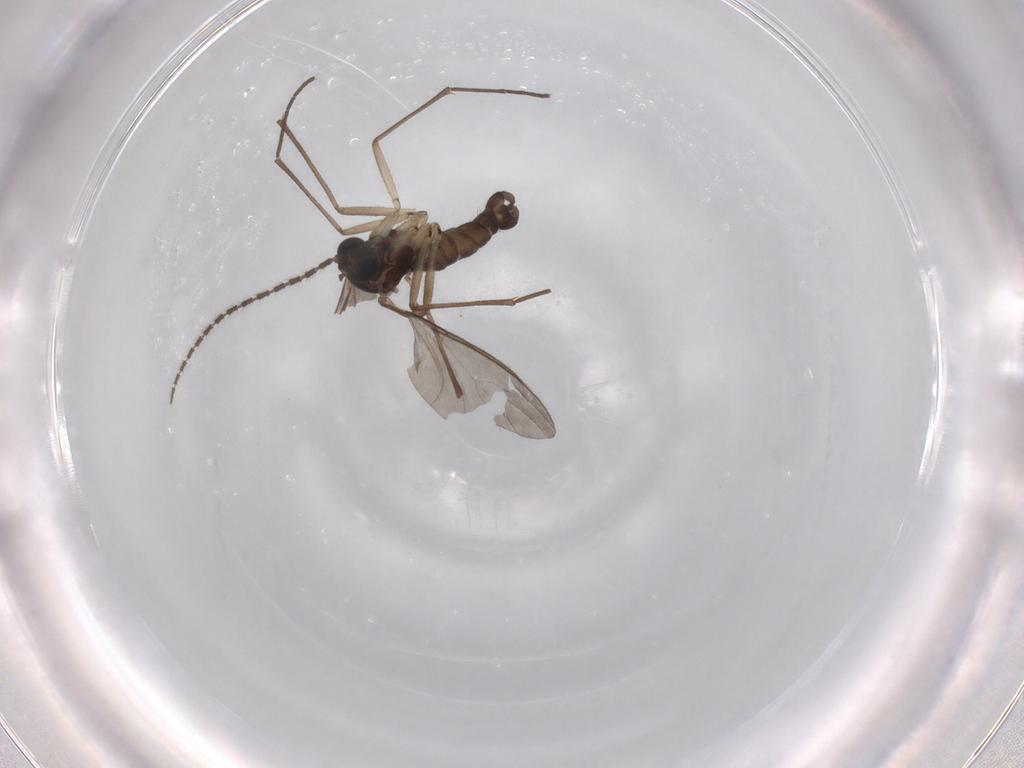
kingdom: Animalia
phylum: Arthropoda
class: Insecta
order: Diptera
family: Sciaridae
